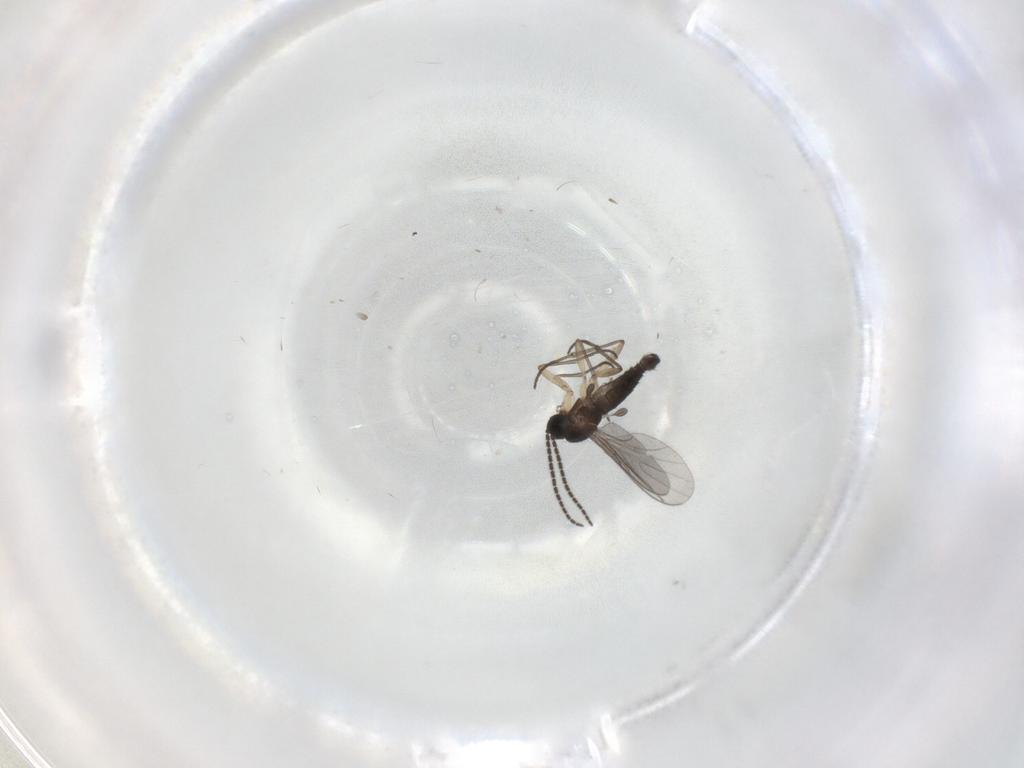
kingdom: Animalia
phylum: Arthropoda
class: Insecta
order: Diptera
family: Sciaridae
